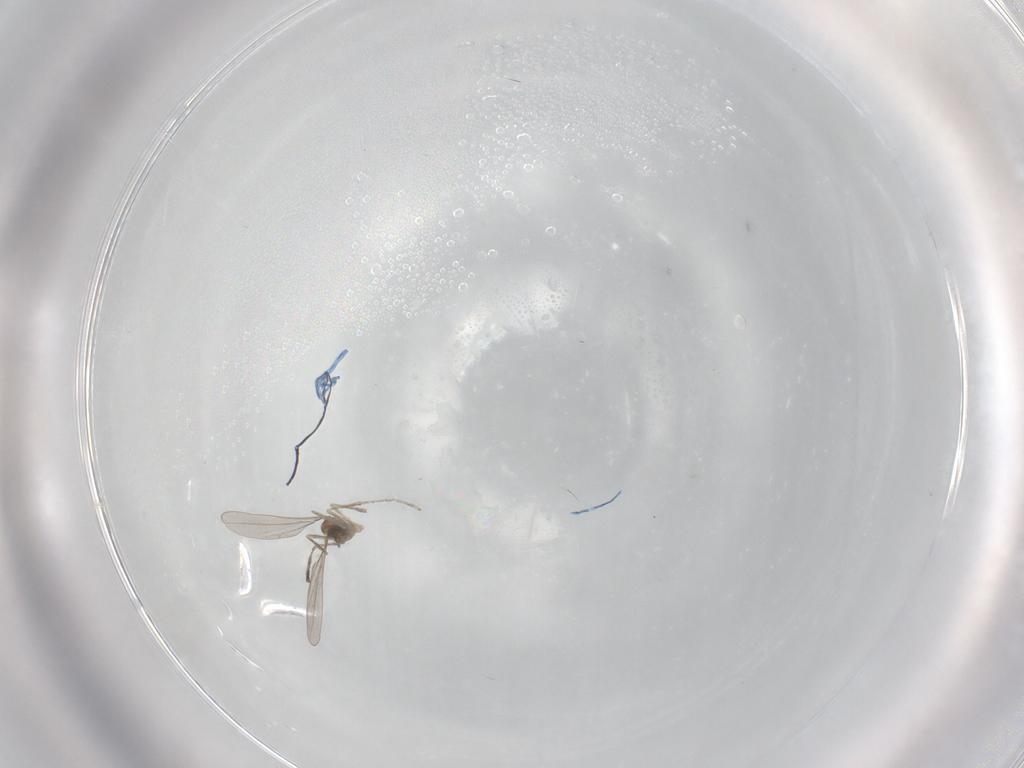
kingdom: Animalia
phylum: Arthropoda
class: Insecta
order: Diptera
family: Cecidomyiidae
